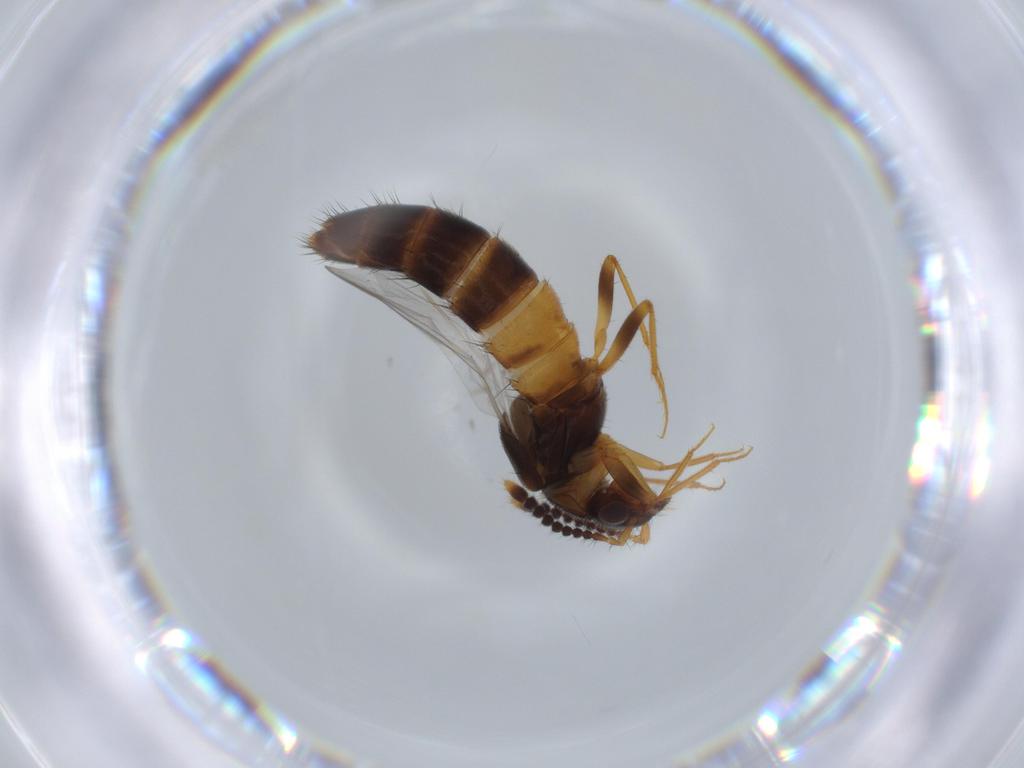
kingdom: Animalia
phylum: Arthropoda
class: Insecta
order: Coleoptera
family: Staphylinidae
